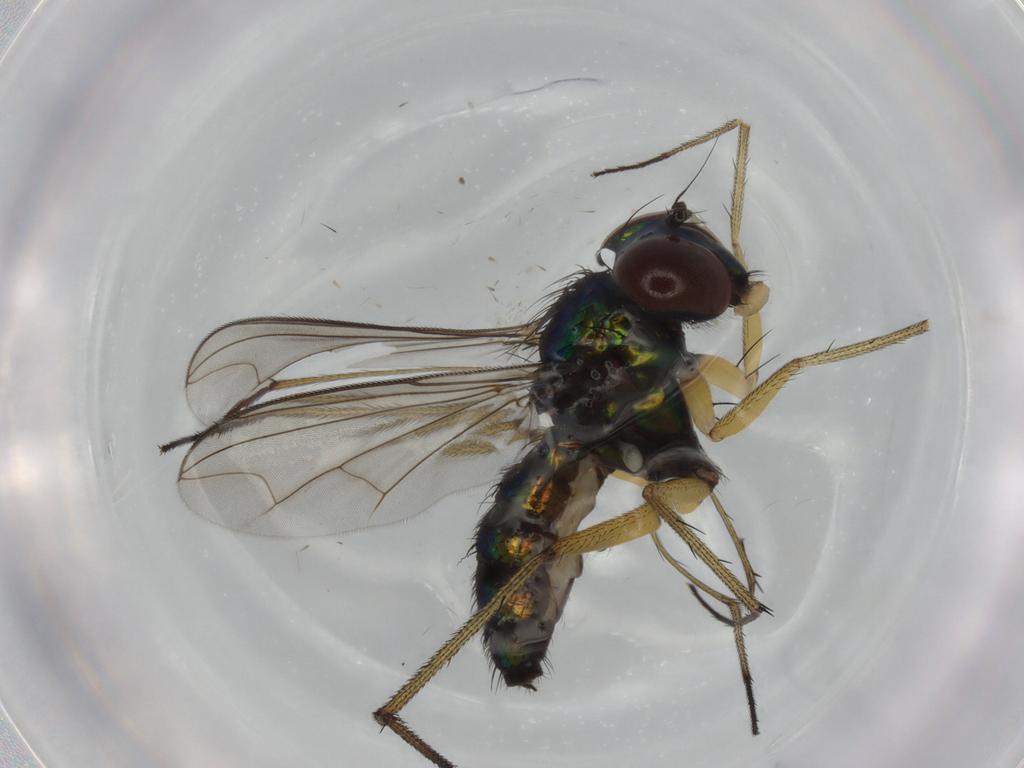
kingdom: Animalia
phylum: Arthropoda
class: Insecta
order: Diptera
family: Dolichopodidae
